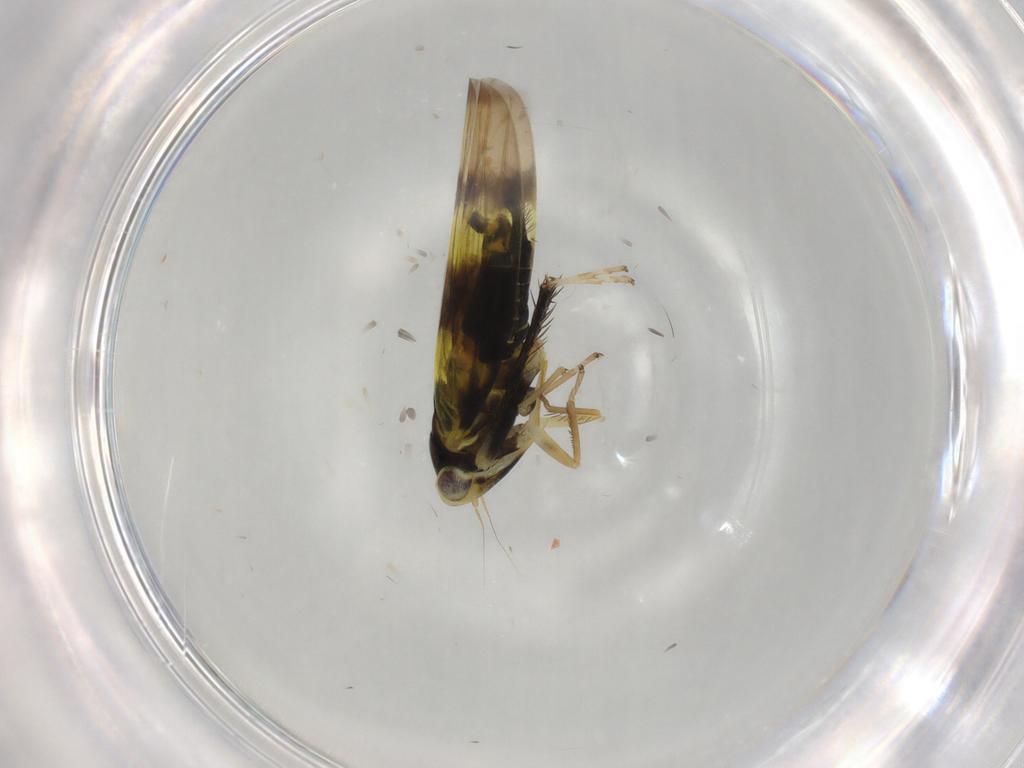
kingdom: Animalia
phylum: Arthropoda
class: Insecta
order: Hemiptera
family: Cicadellidae
